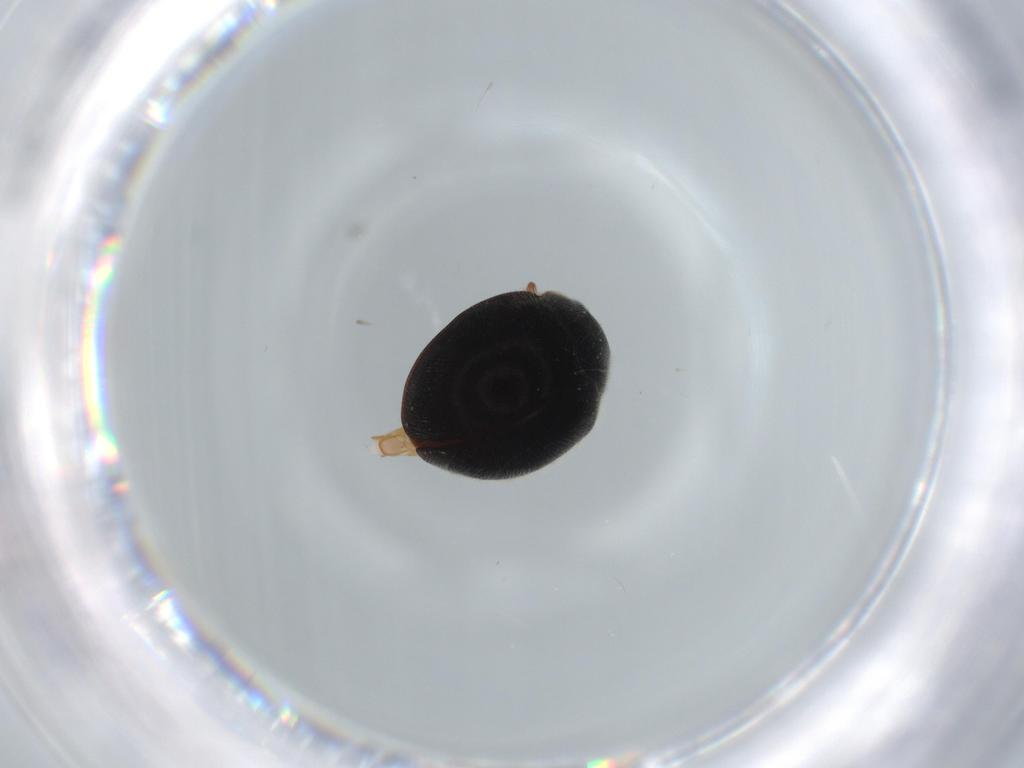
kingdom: Animalia
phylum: Arthropoda
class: Insecta
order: Coleoptera
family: Coccinellidae
